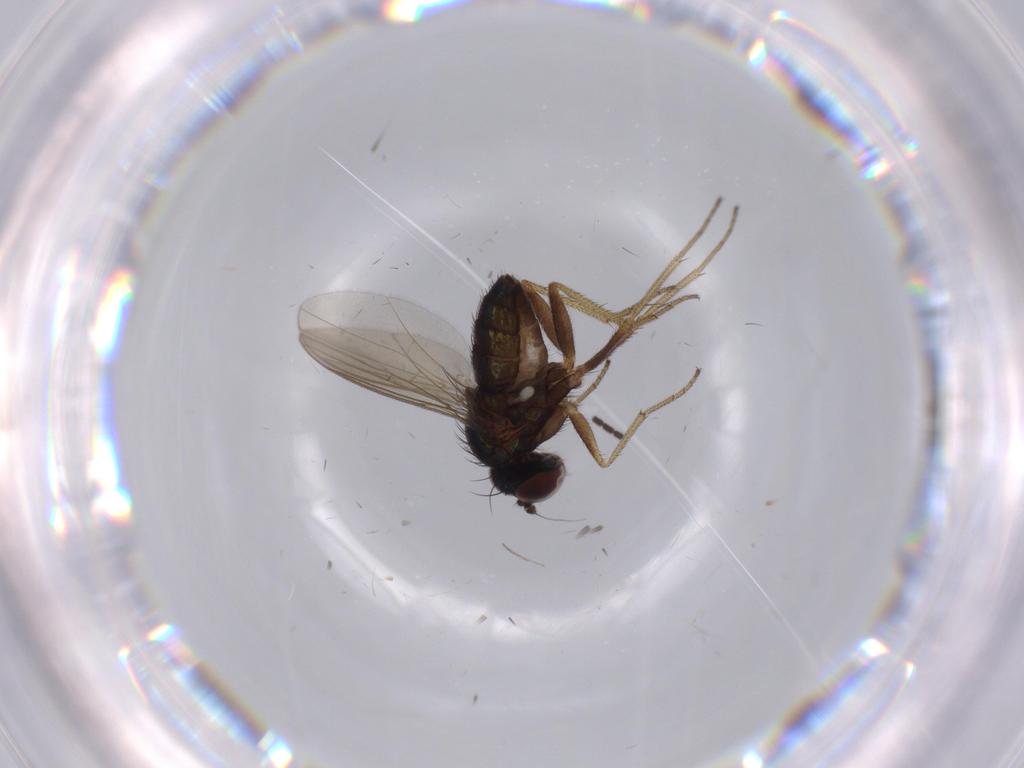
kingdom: Animalia
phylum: Arthropoda
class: Insecta
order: Diptera
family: Sciaridae
